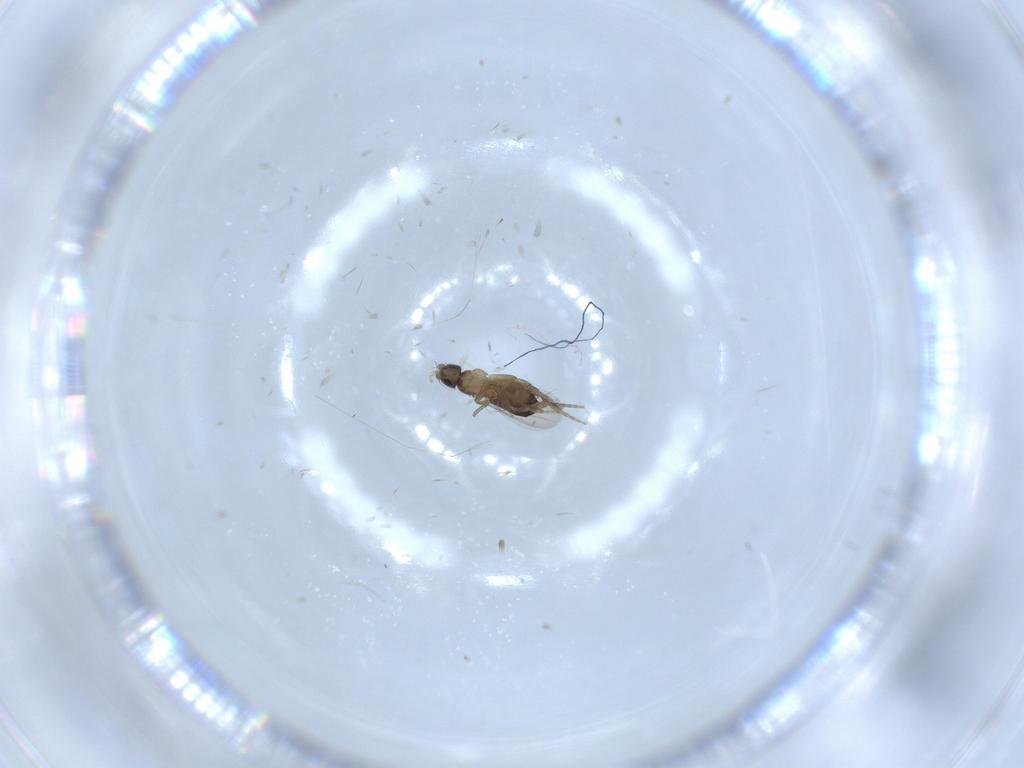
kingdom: Animalia
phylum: Arthropoda
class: Insecta
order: Diptera
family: Phoridae
